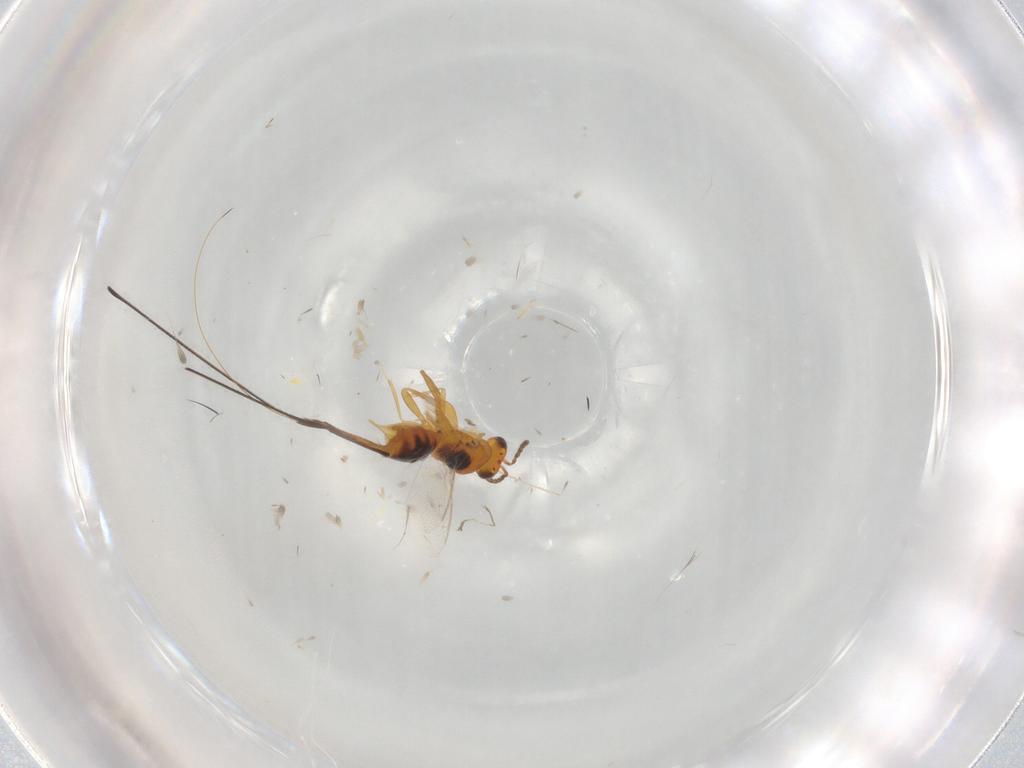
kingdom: Animalia
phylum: Arthropoda
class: Insecta
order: Hymenoptera
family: Pteromalidae
